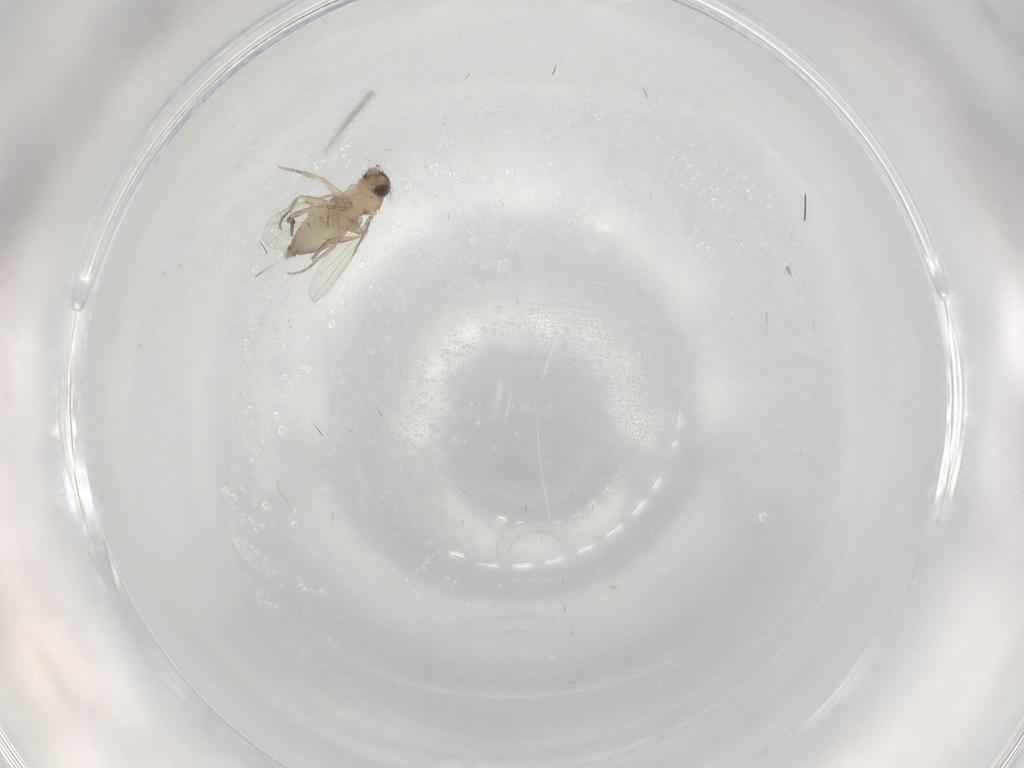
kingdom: Animalia
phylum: Arthropoda
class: Insecta
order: Diptera
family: Phoridae
